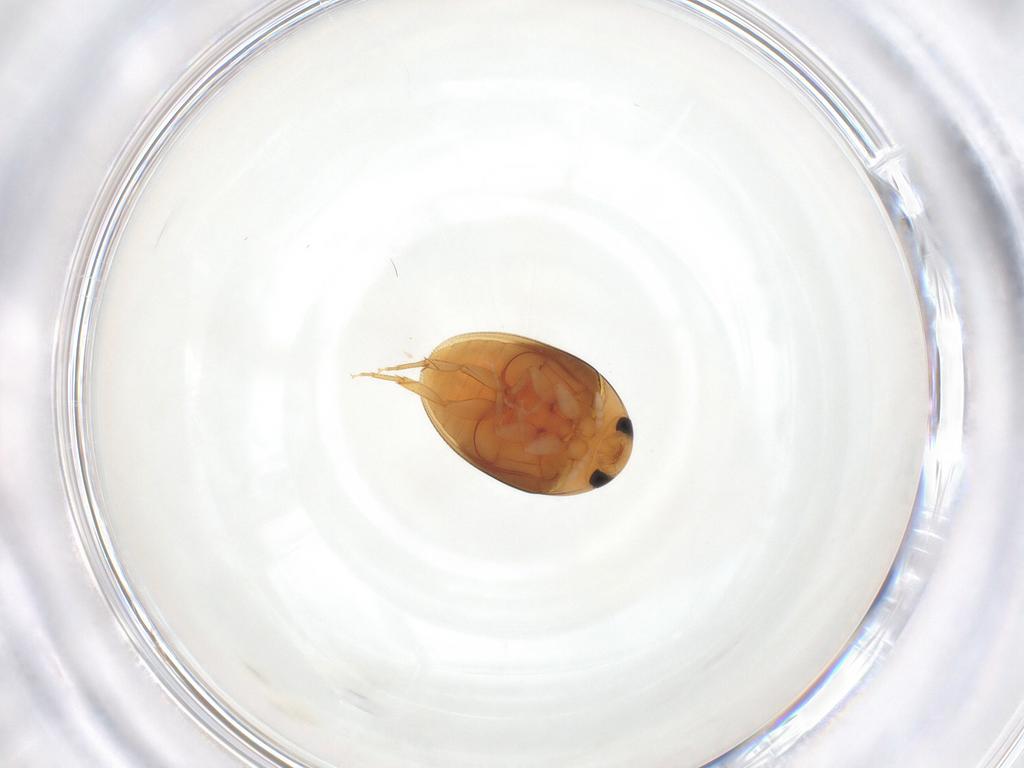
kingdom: Animalia
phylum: Arthropoda
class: Insecta
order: Coleoptera
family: Phalacridae
